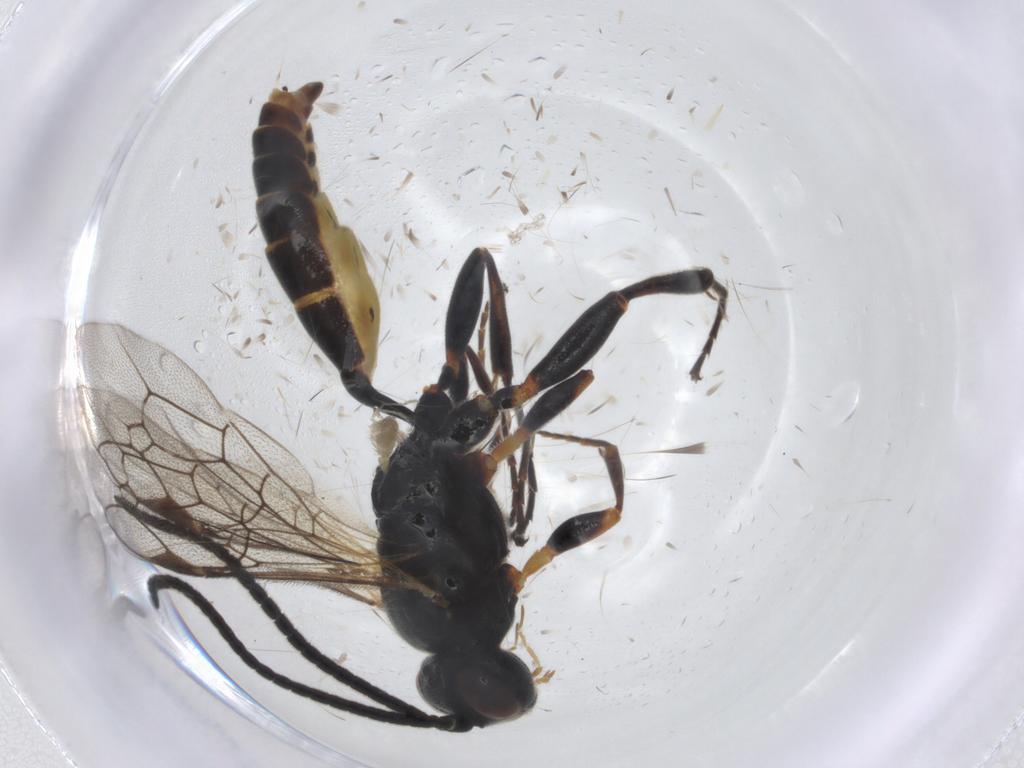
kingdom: Animalia
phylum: Arthropoda
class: Insecta
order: Hymenoptera
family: Ichneumonidae
